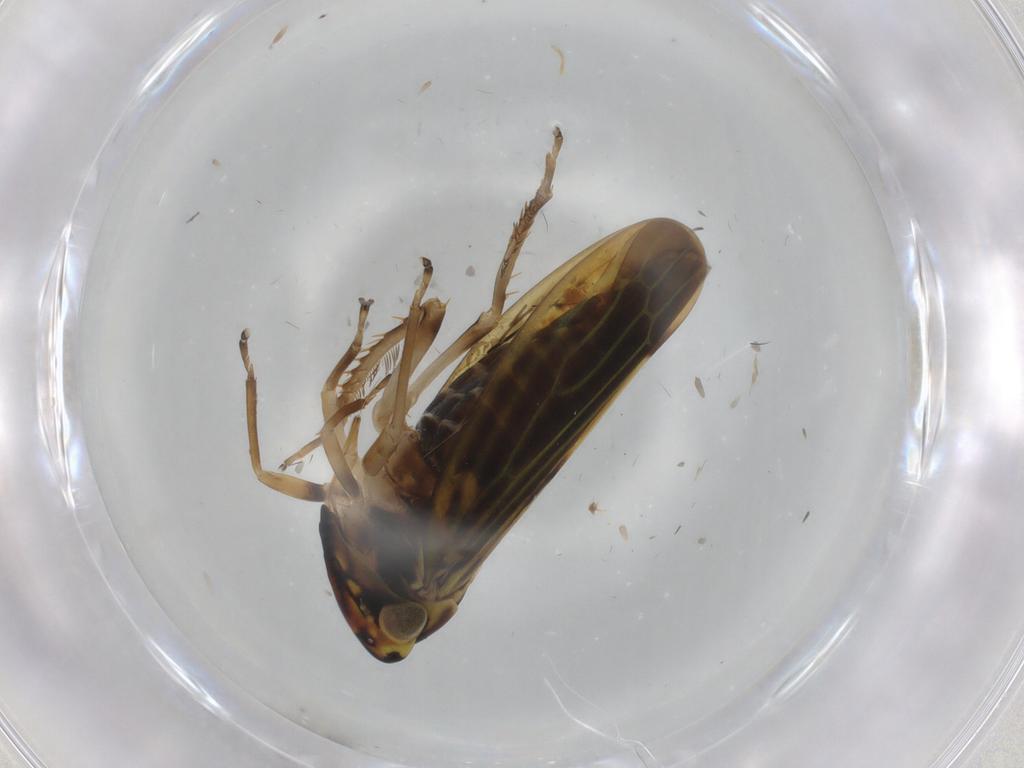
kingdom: Animalia
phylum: Arthropoda
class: Insecta
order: Hemiptera
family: Cicadellidae
